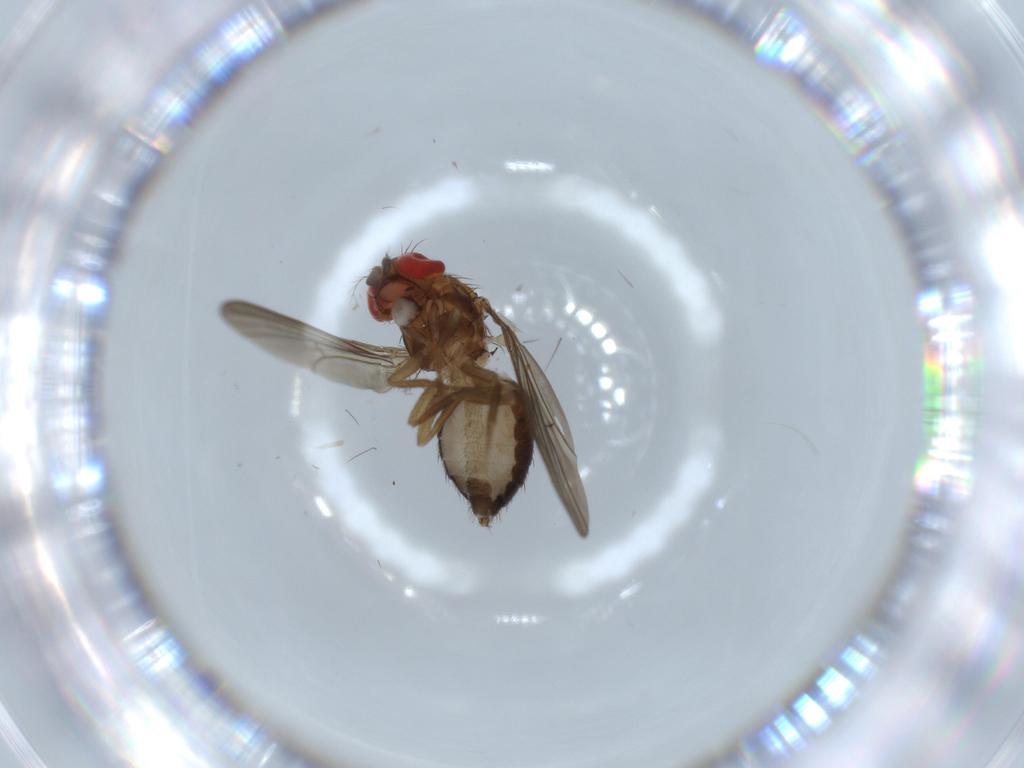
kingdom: Animalia
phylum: Arthropoda
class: Insecta
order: Diptera
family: Drosophilidae
